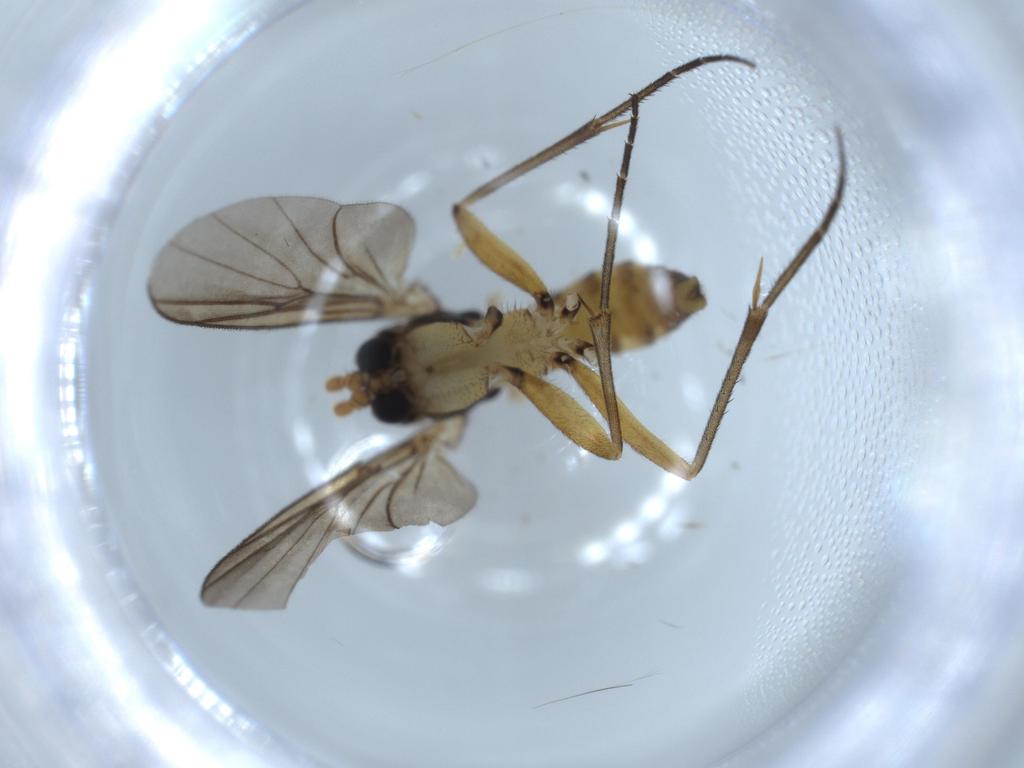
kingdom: Animalia
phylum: Arthropoda
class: Insecta
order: Diptera
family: Mycetophilidae
